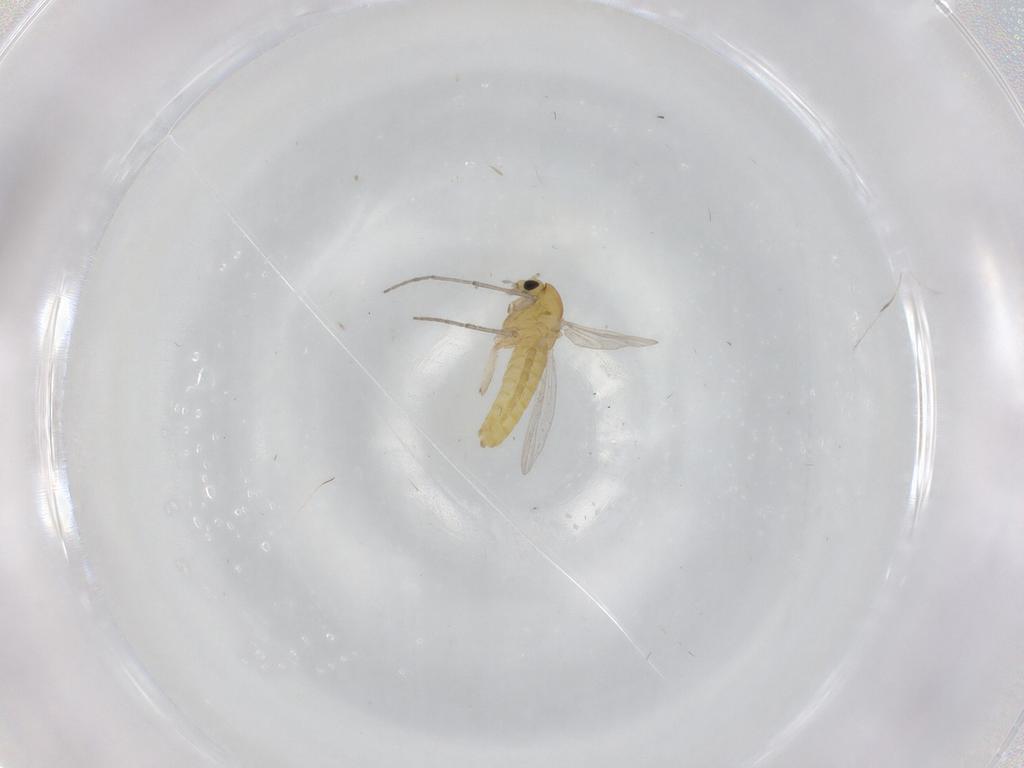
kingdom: Animalia
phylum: Arthropoda
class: Insecta
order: Diptera
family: Chironomidae
